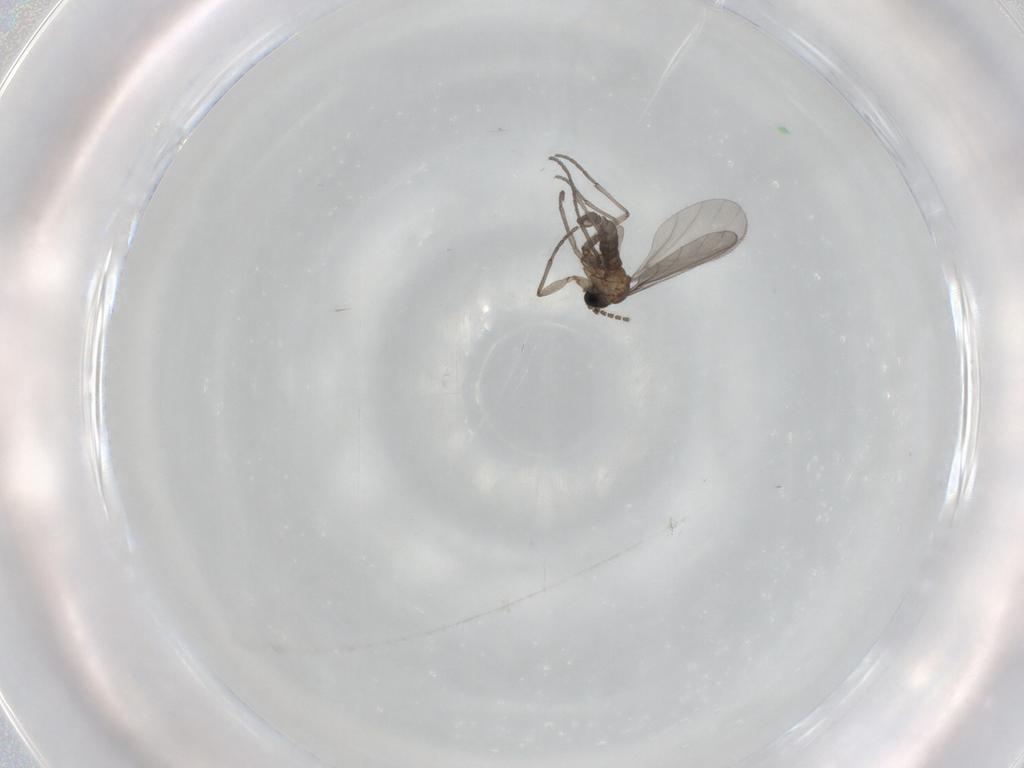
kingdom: Animalia
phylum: Arthropoda
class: Insecta
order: Diptera
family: Sciaridae
